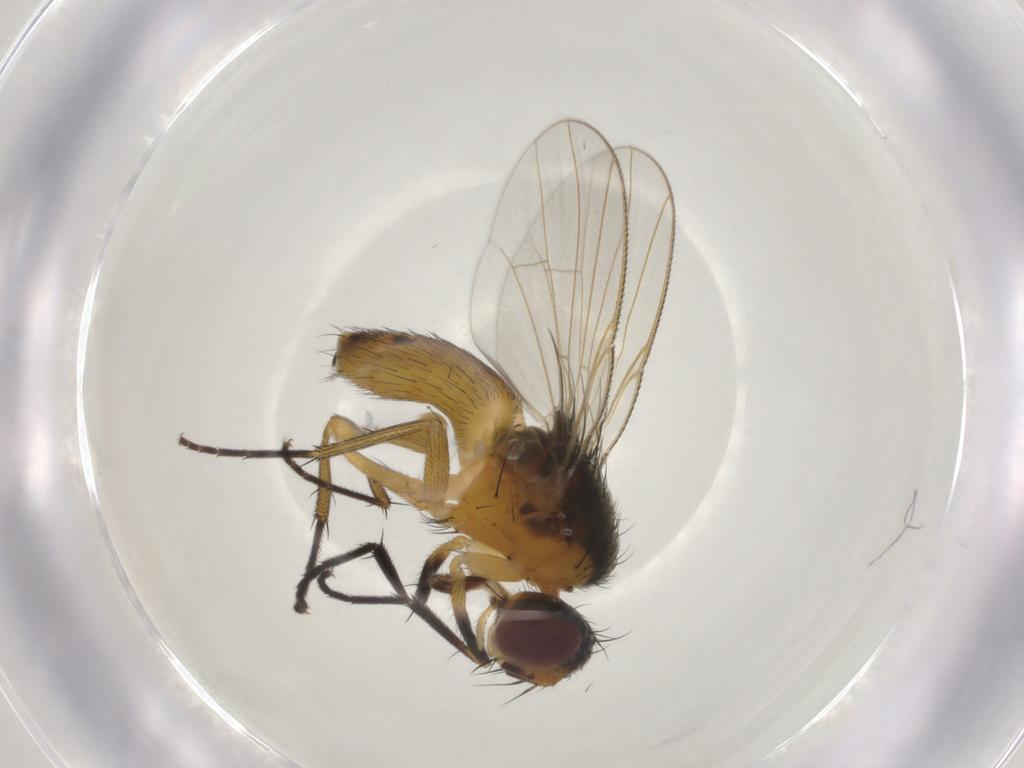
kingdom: Animalia
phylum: Arthropoda
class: Insecta
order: Diptera
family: Muscidae
